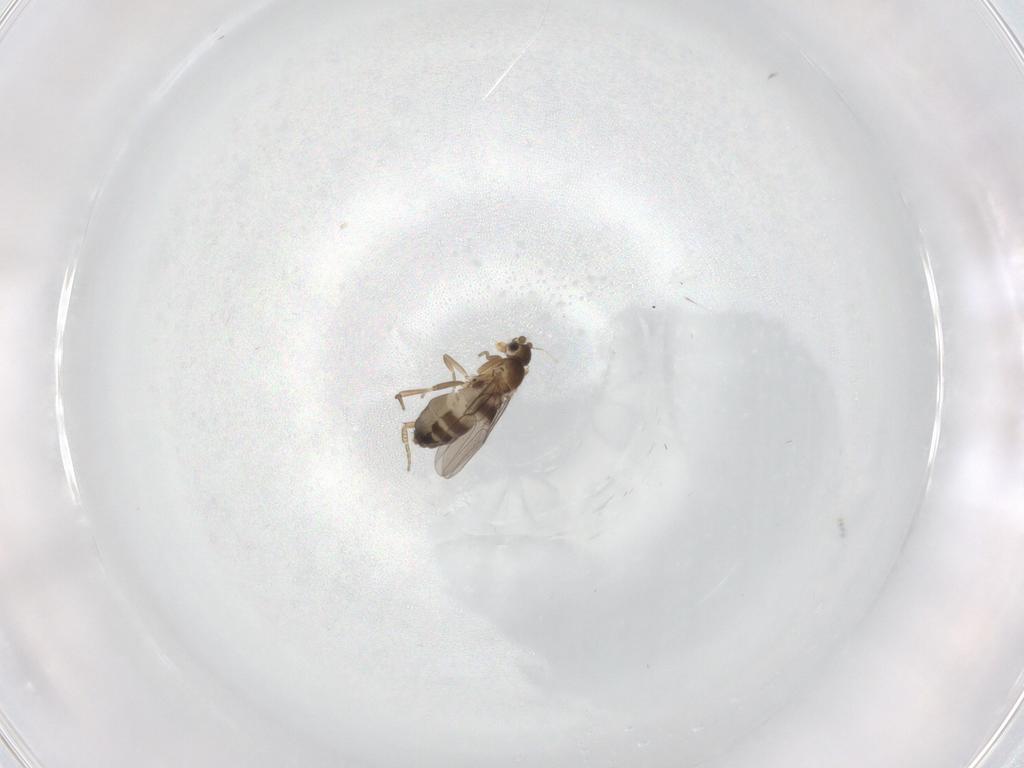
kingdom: Animalia
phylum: Arthropoda
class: Insecta
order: Diptera
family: Phoridae
